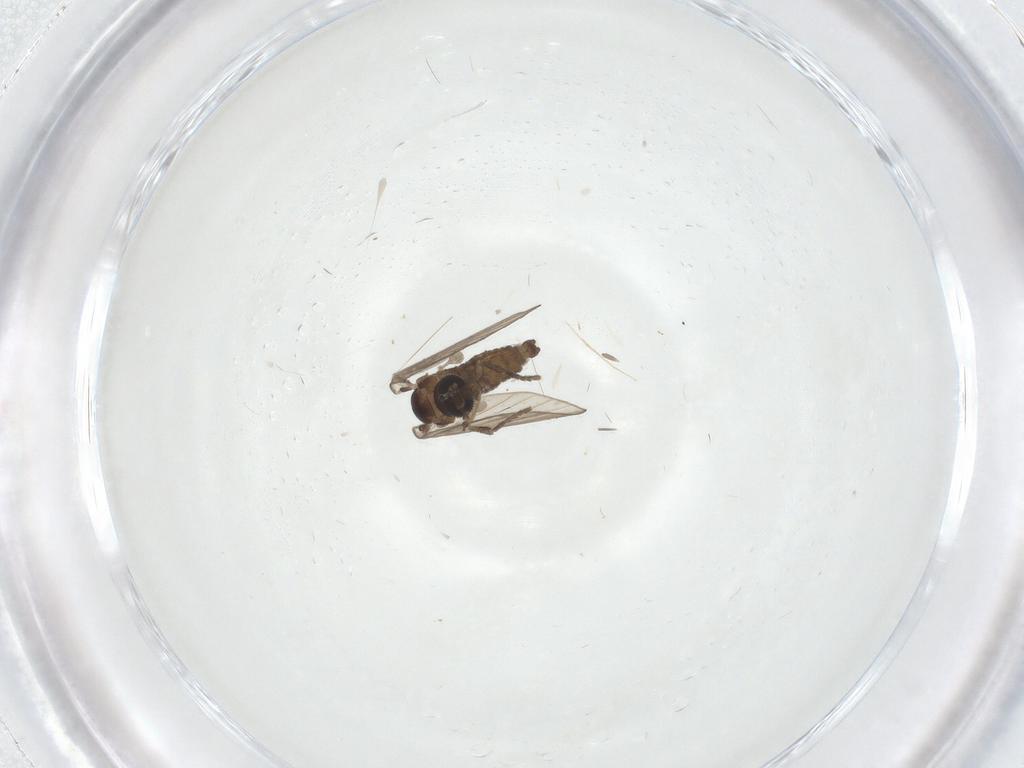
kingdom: Animalia
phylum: Arthropoda
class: Insecta
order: Diptera
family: Psychodidae
